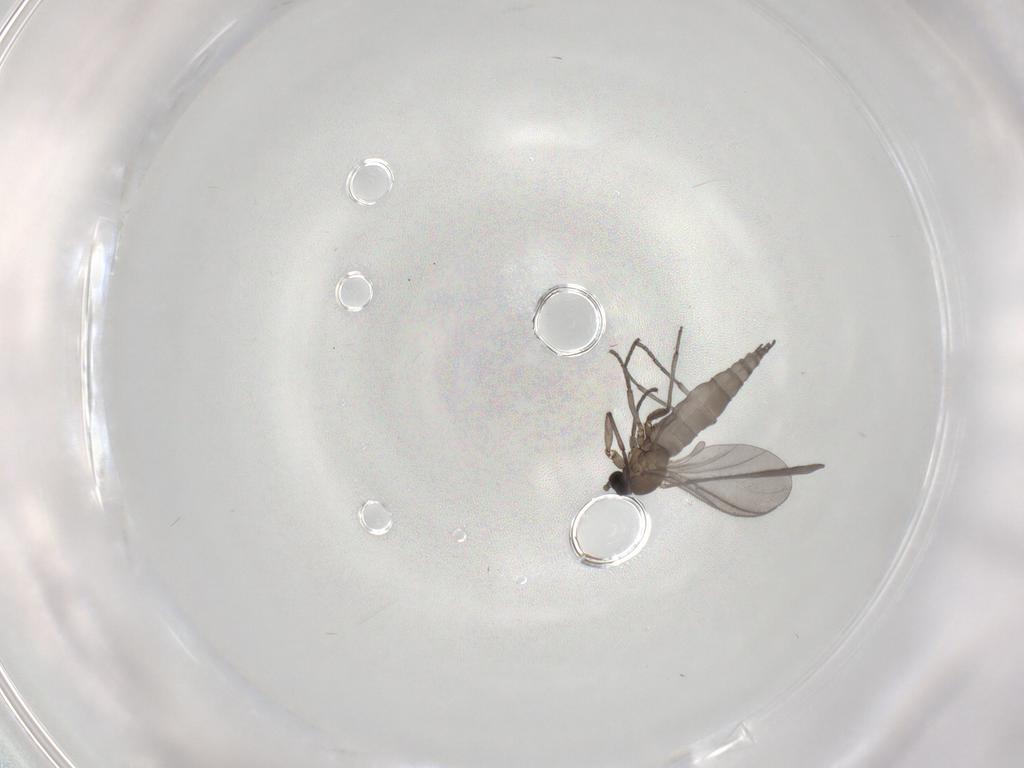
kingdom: Animalia
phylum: Arthropoda
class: Insecta
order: Diptera
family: Sciaridae
